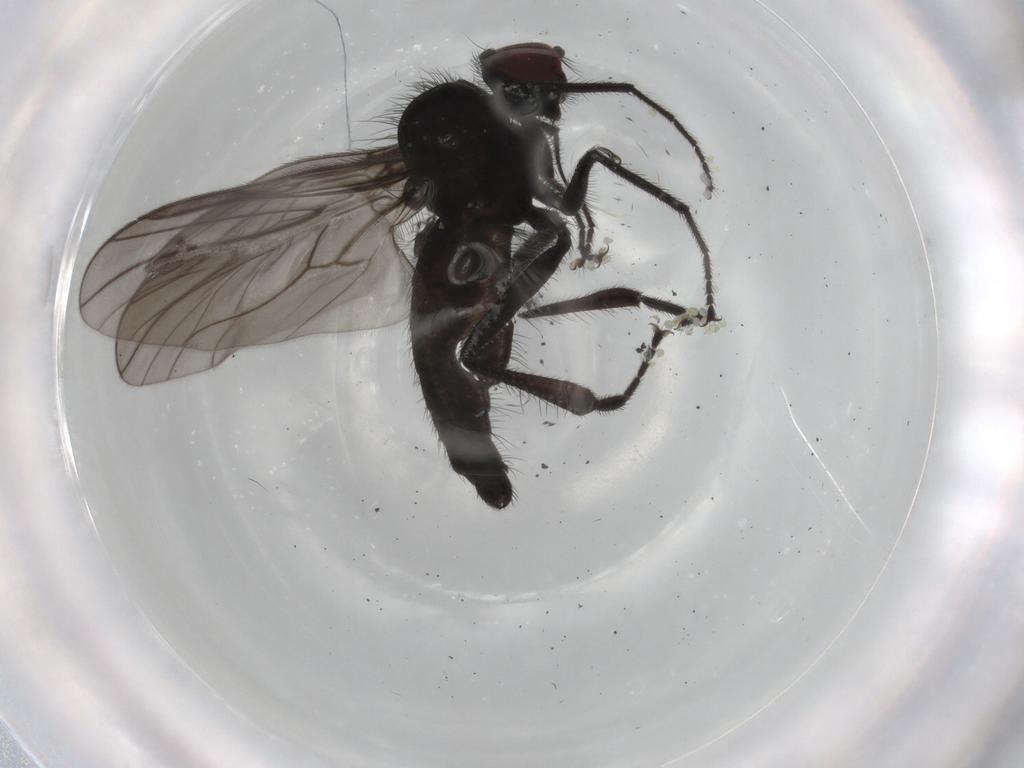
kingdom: Animalia
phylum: Arthropoda
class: Insecta
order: Diptera
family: Hybotidae
